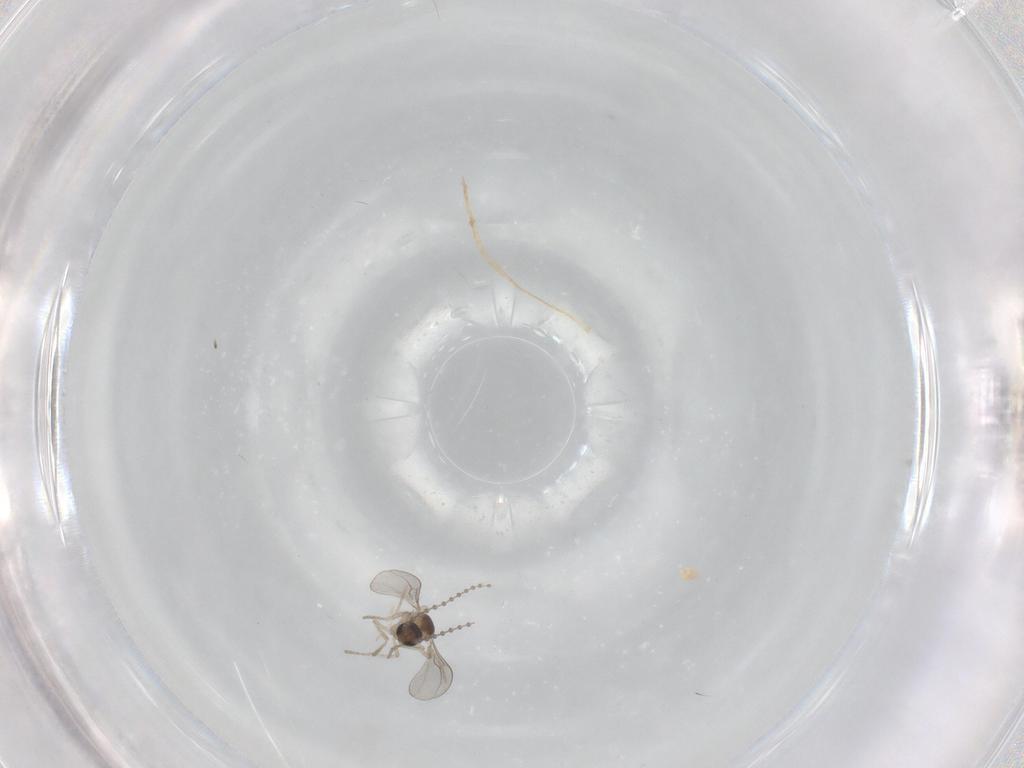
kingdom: Animalia
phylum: Arthropoda
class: Insecta
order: Diptera
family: Cecidomyiidae
